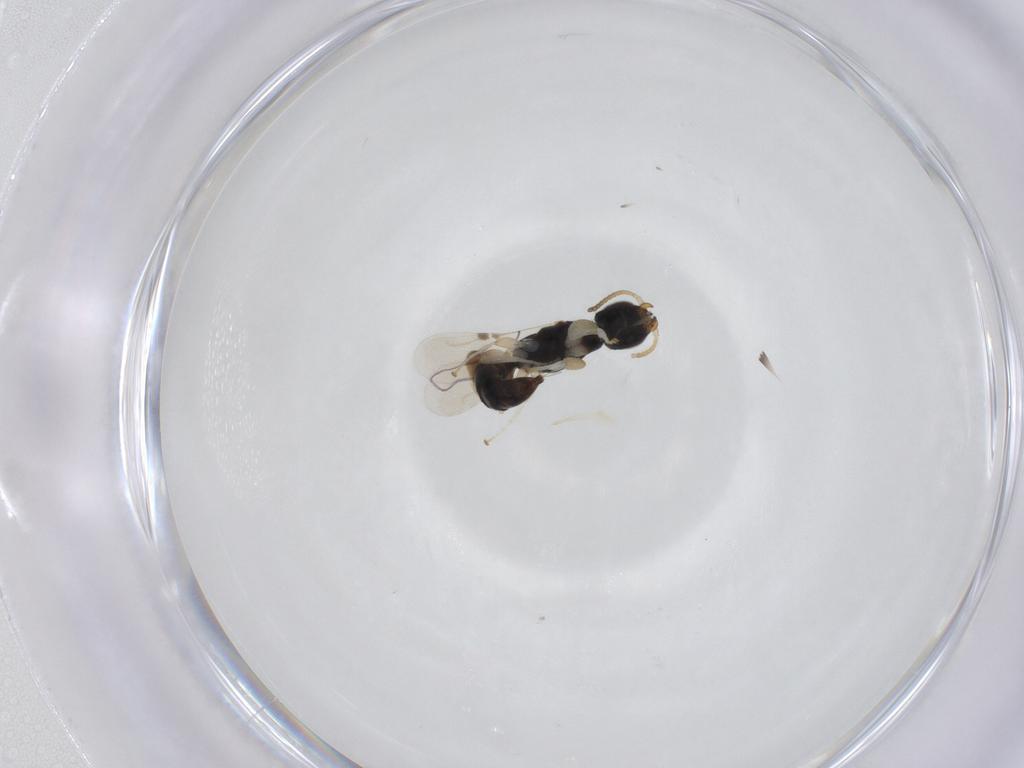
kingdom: Animalia
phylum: Arthropoda
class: Insecta
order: Hymenoptera
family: Bethylidae
